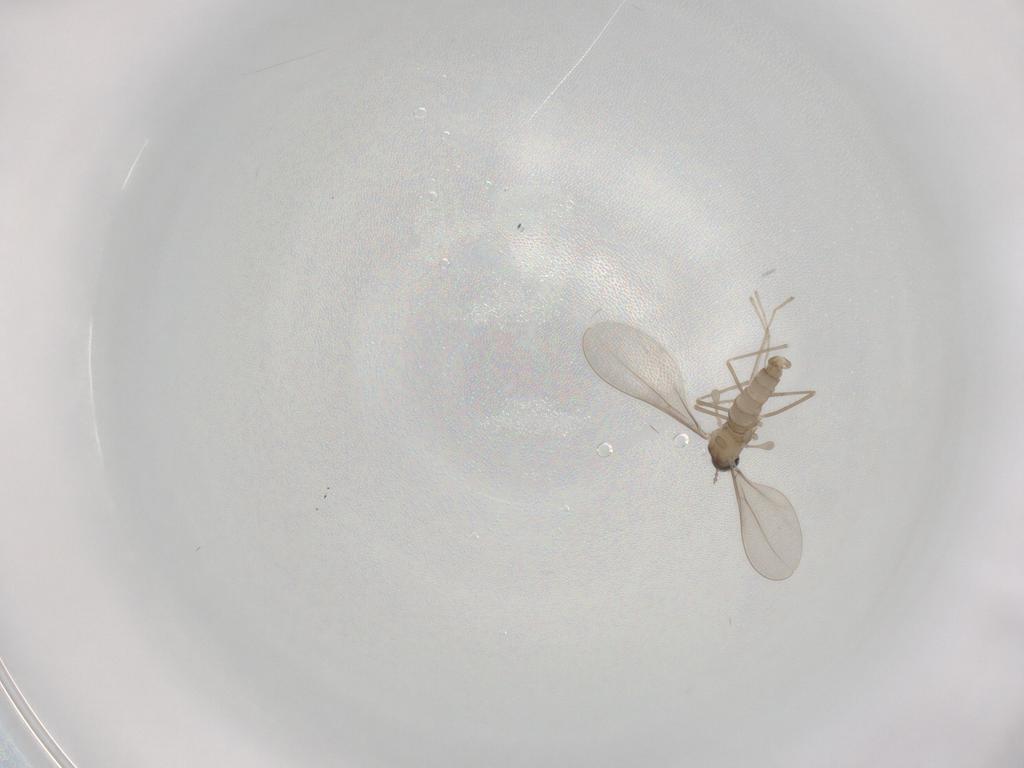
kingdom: Animalia
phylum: Arthropoda
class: Insecta
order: Diptera
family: Cecidomyiidae
